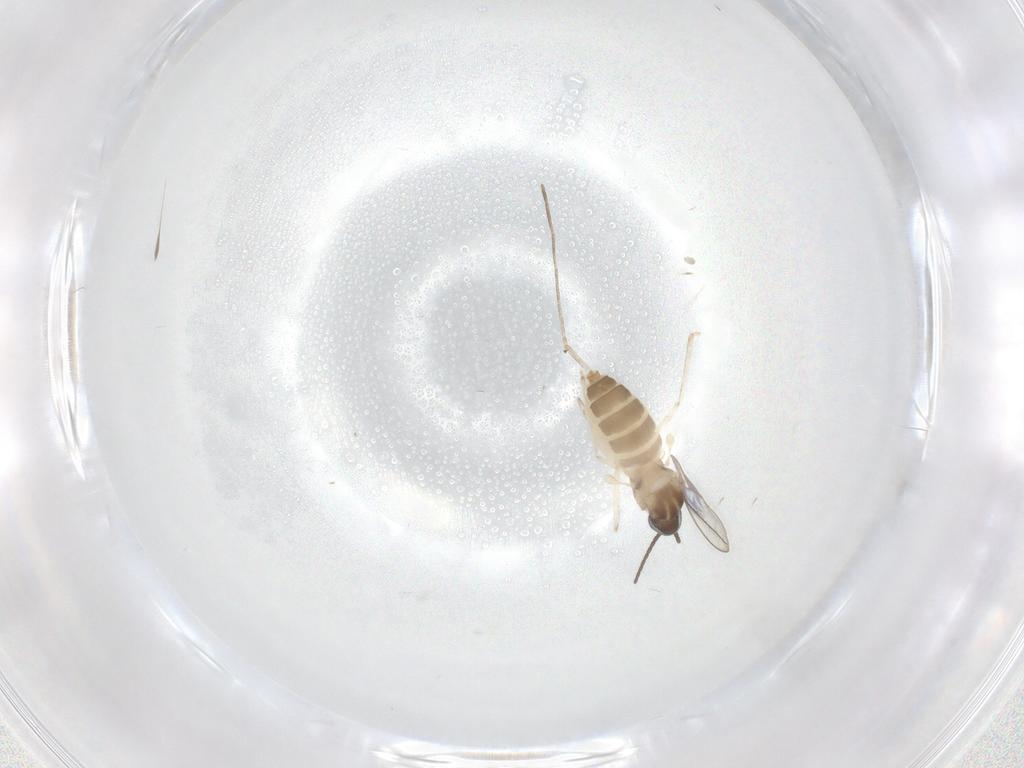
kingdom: Animalia
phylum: Arthropoda
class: Insecta
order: Diptera
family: Cecidomyiidae
